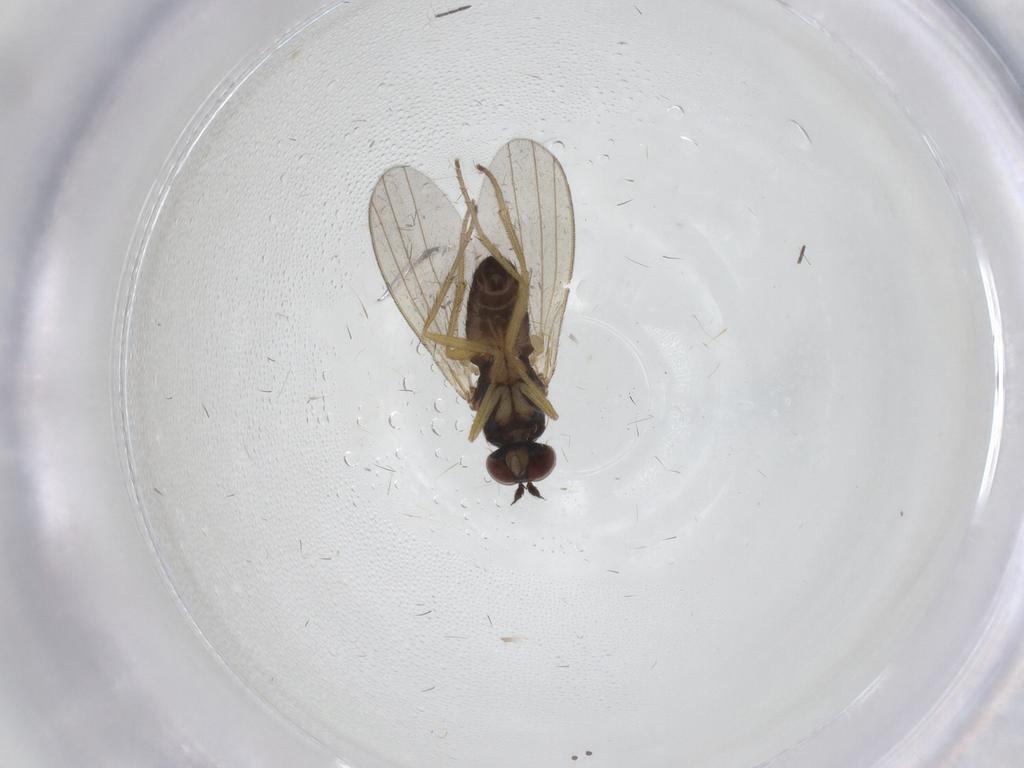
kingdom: Animalia
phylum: Arthropoda
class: Insecta
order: Diptera
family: Dolichopodidae
